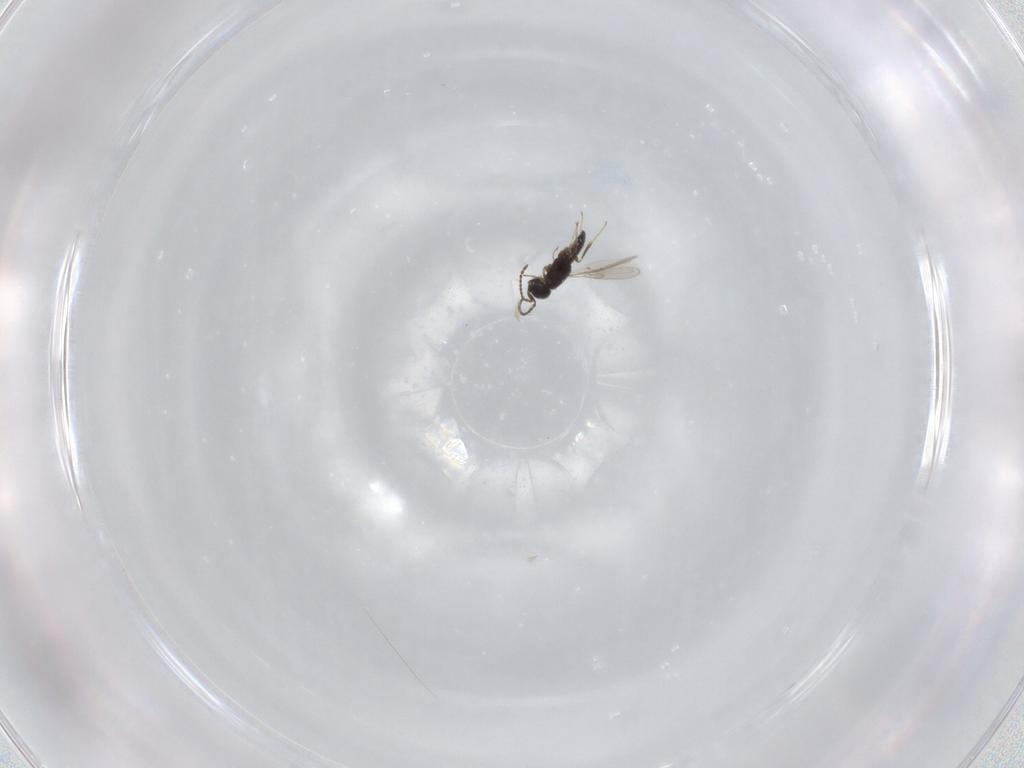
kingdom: Animalia
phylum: Arthropoda
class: Insecta
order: Hymenoptera
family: Scelionidae
